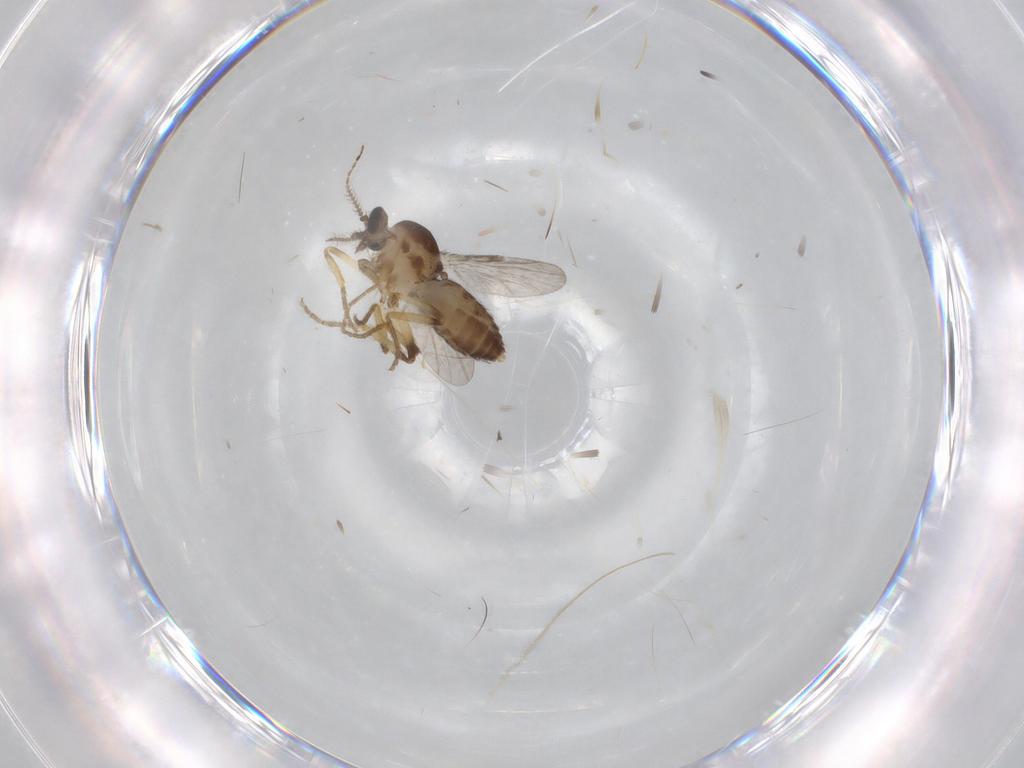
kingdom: Animalia
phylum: Arthropoda
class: Insecta
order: Diptera
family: Ceratopogonidae
